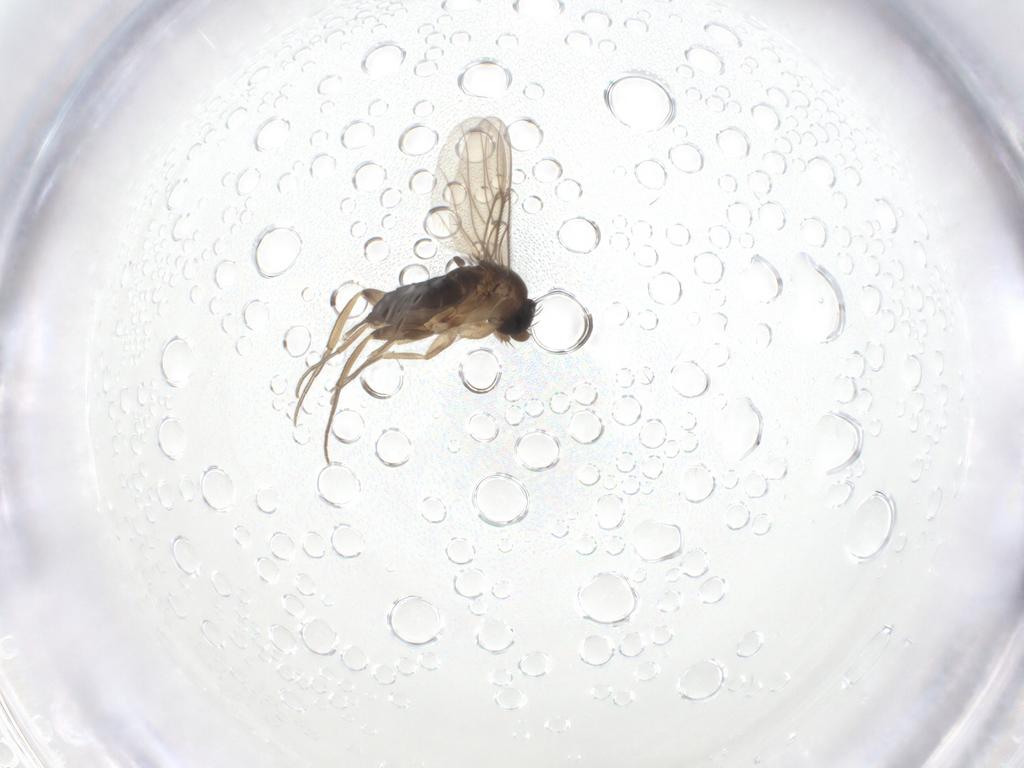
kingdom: Animalia
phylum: Arthropoda
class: Insecta
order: Diptera
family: Phoridae
